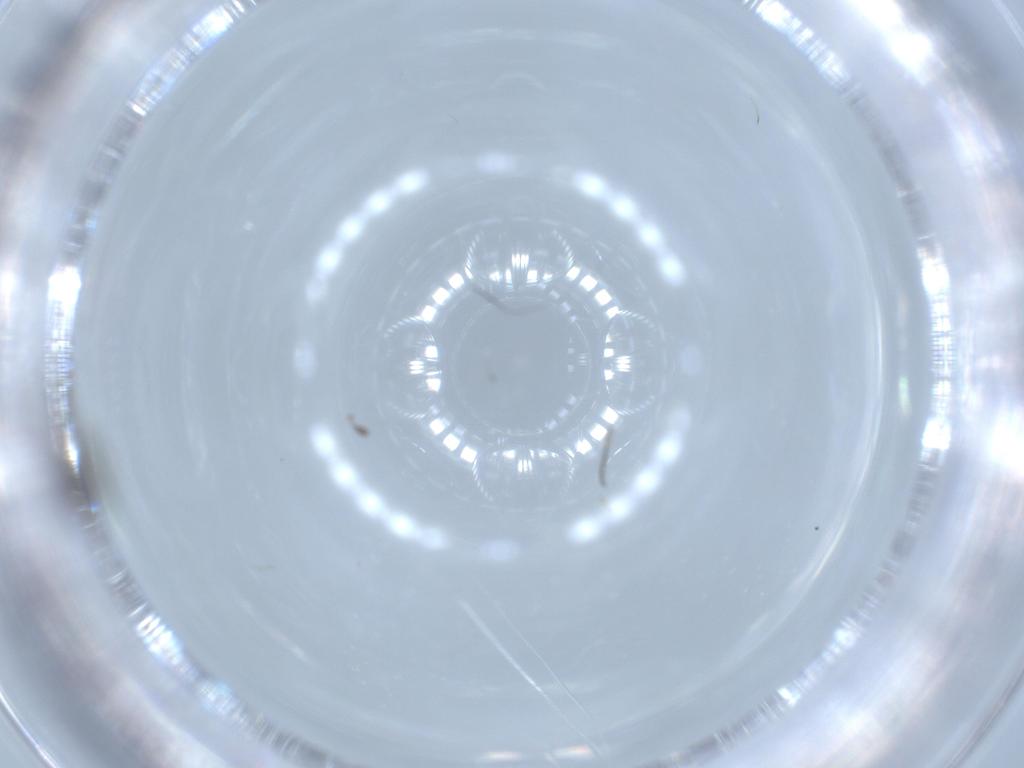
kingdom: Animalia
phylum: Arthropoda
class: Insecta
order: Diptera
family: Sciaridae
